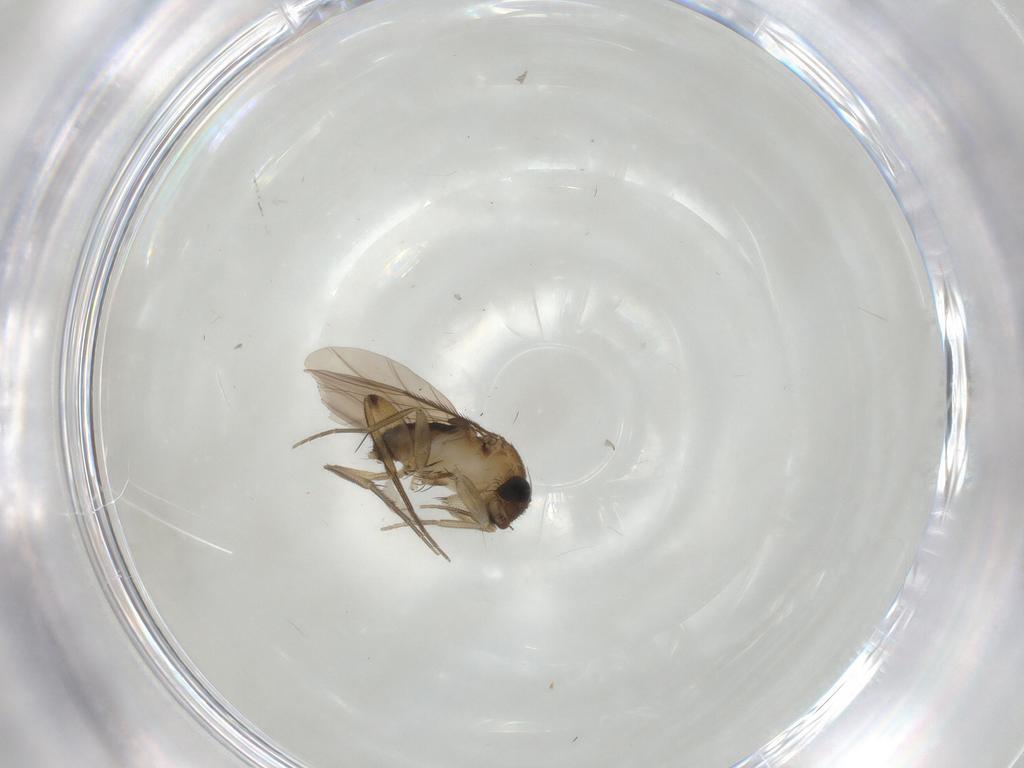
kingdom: Animalia
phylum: Arthropoda
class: Insecta
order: Diptera
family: Phoridae
